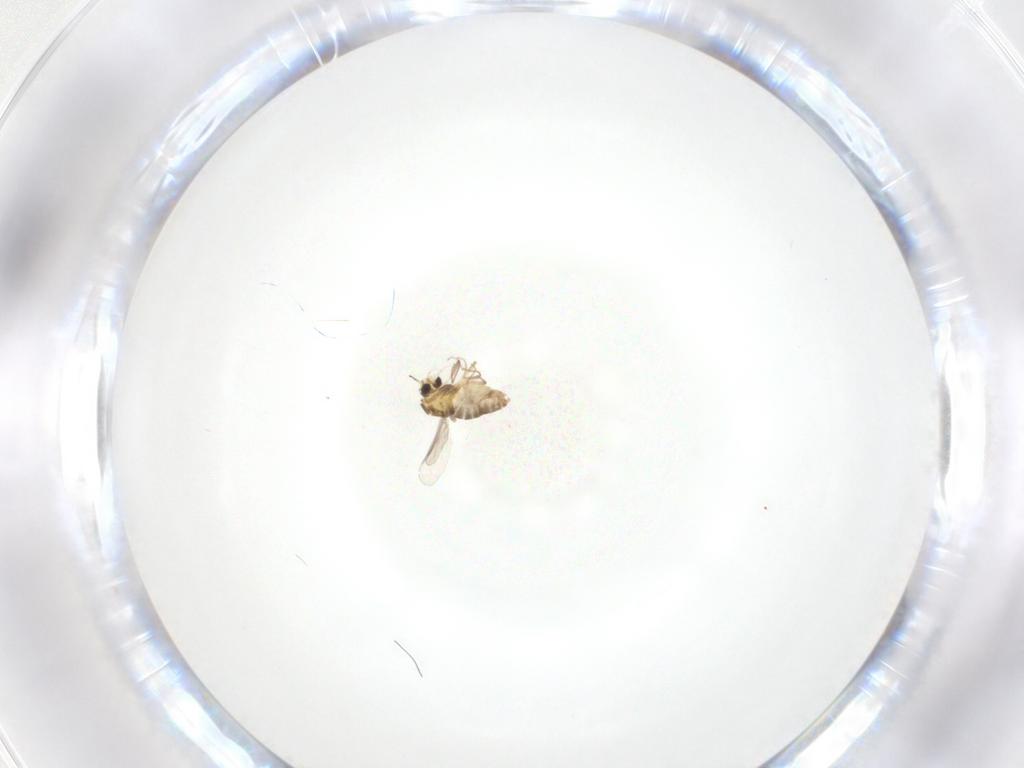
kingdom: Animalia
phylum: Arthropoda
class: Insecta
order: Diptera
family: Chironomidae
